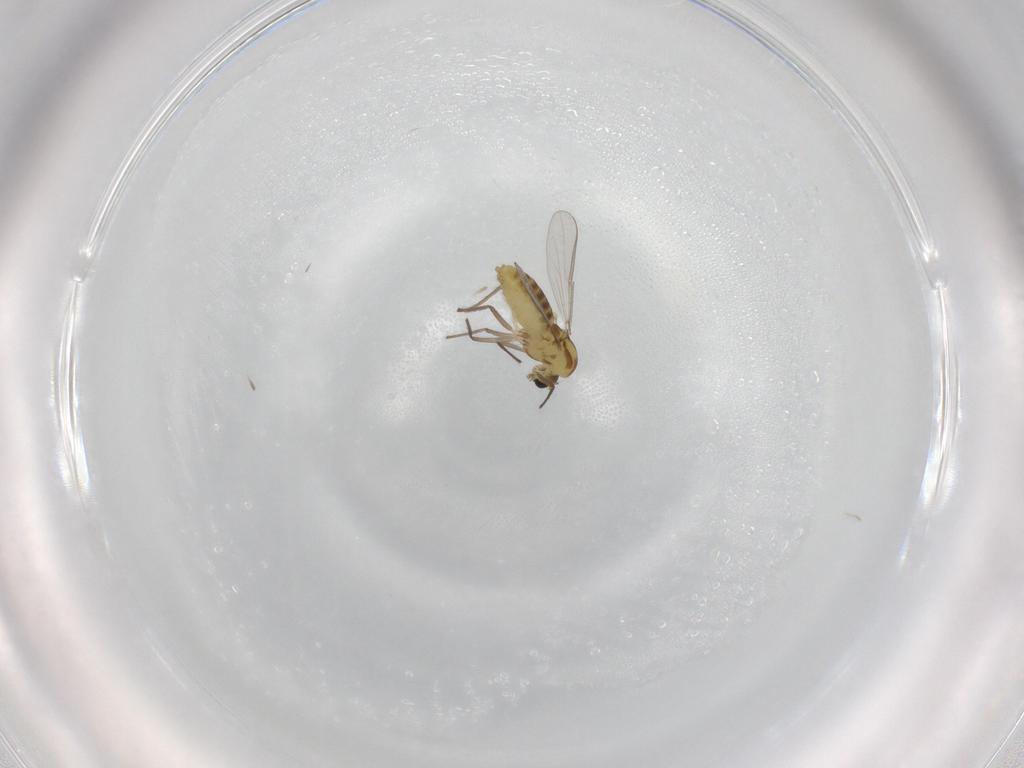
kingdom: Animalia
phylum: Arthropoda
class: Insecta
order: Diptera
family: Chironomidae
